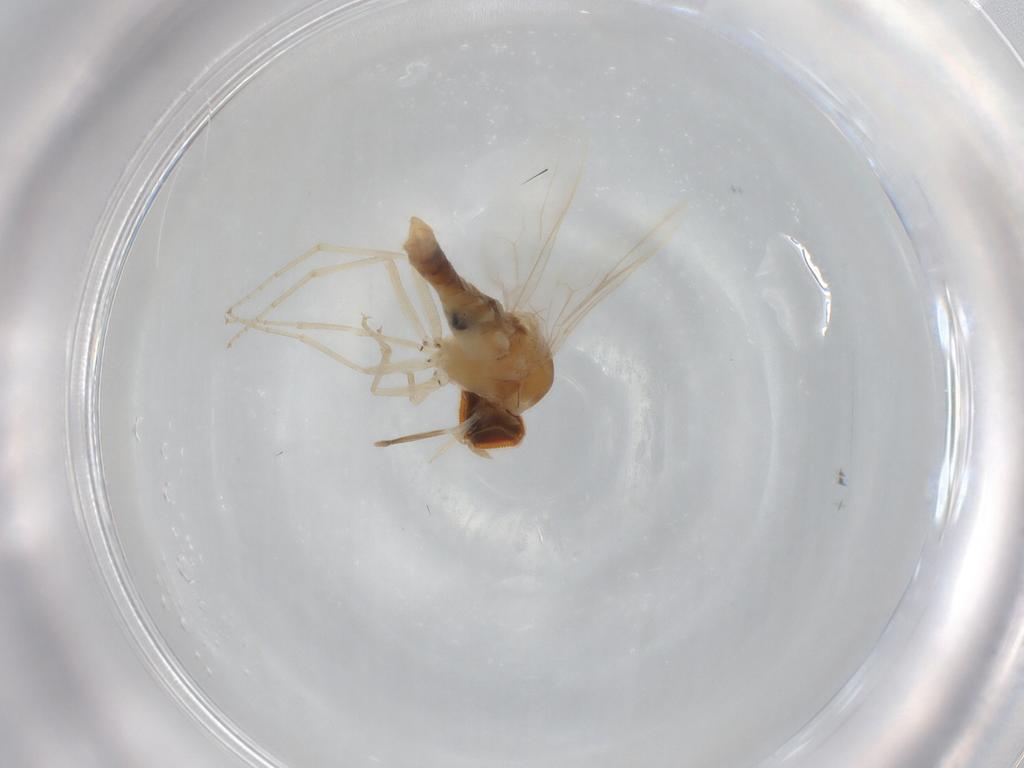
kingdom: Animalia
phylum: Arthropoda
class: Insecta
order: Diptera
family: Scenopinidae
